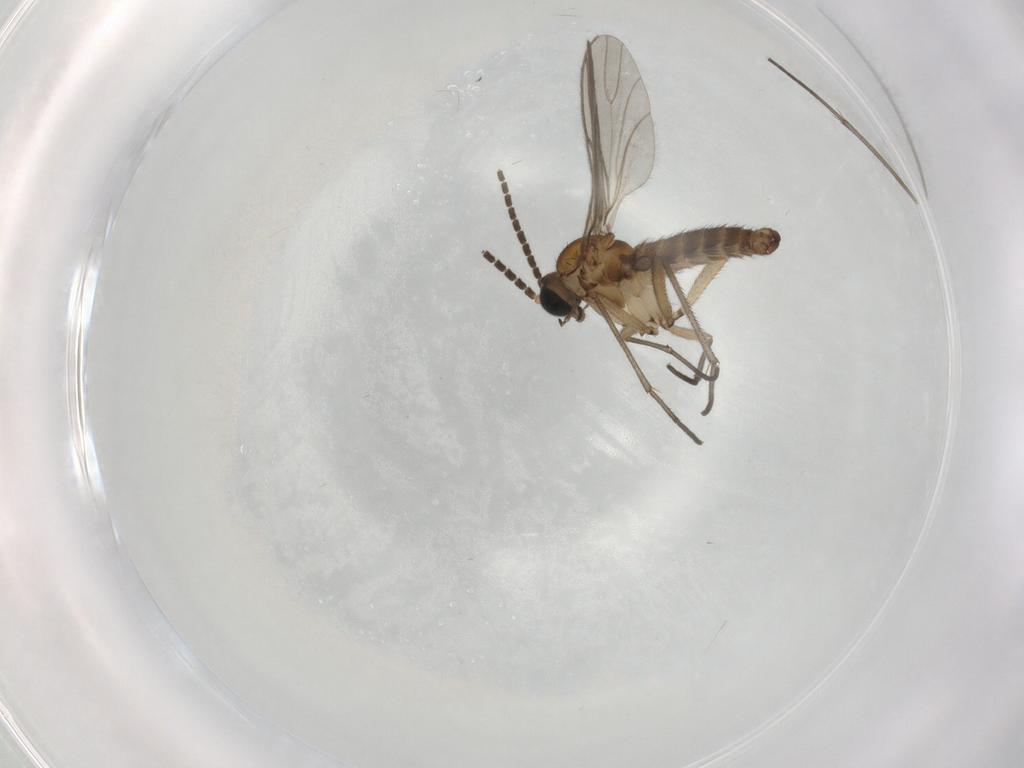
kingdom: Animalia
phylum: Arthropoda
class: Insecta
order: Diptera
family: Sciaridae
